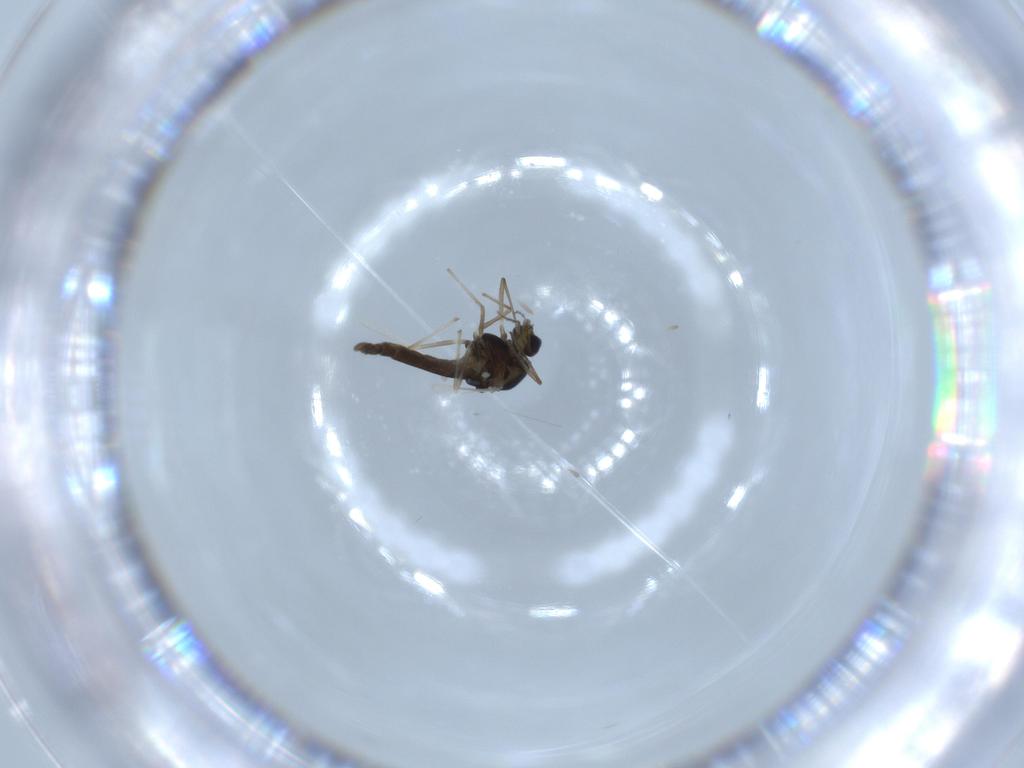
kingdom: Animalia
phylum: Arthropoda
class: Insecta
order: Diptera
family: Chironomidae
